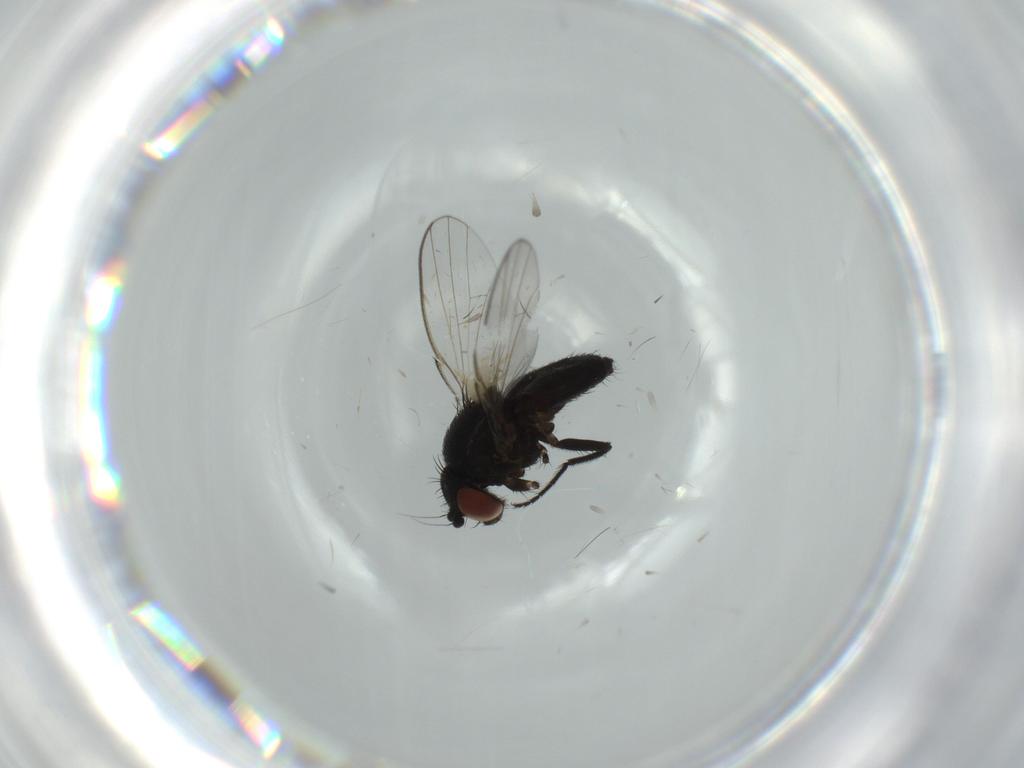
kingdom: Animalia
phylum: Arthropoda
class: Insecta
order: Diptera
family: Milichiidae
